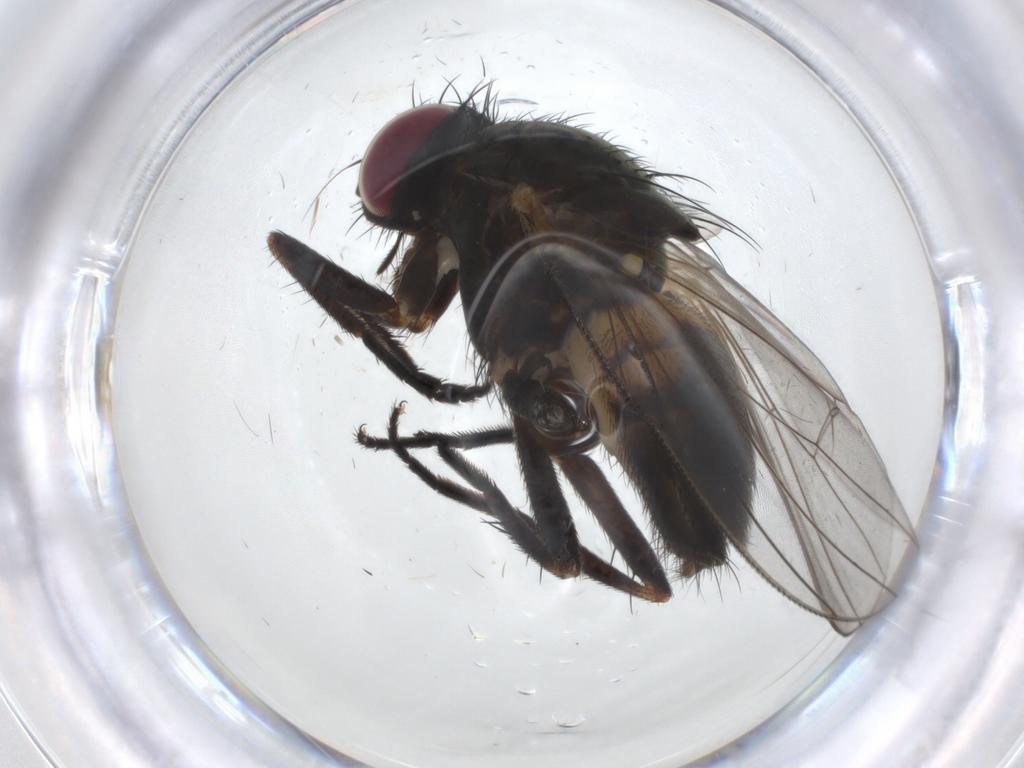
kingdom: Animalia
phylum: Arthropoda
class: Insecta
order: Diptera
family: Fannia
